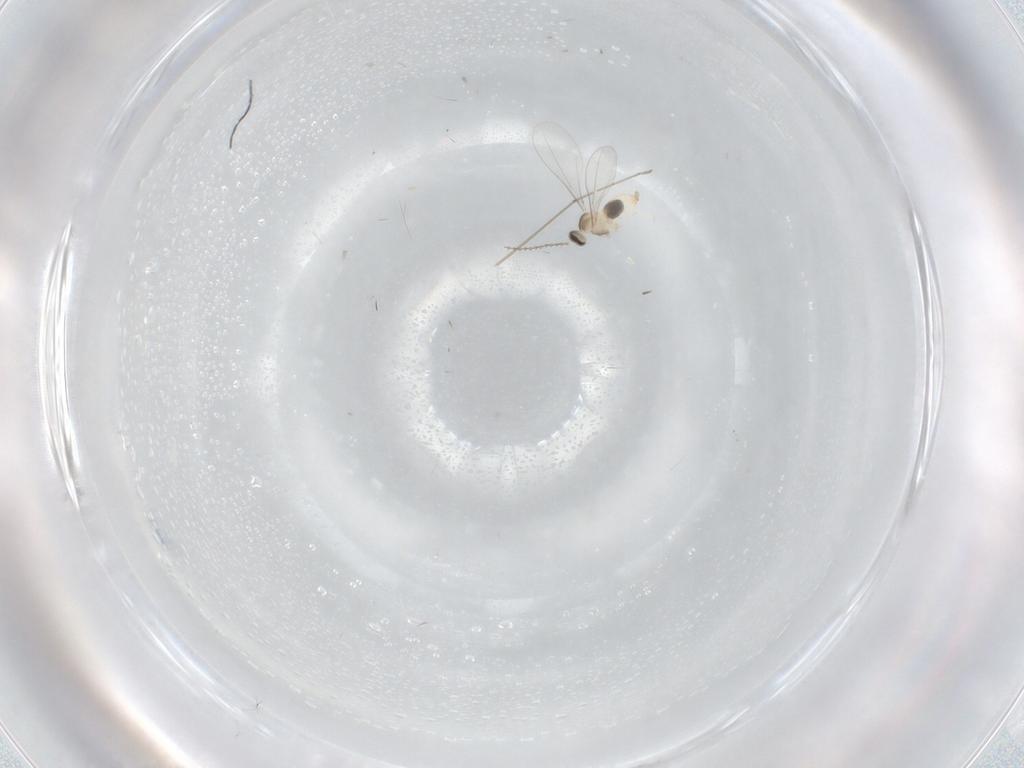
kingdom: Animalia
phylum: Arthropoda
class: Insecta
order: Diptera
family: Cecidomyiidae
